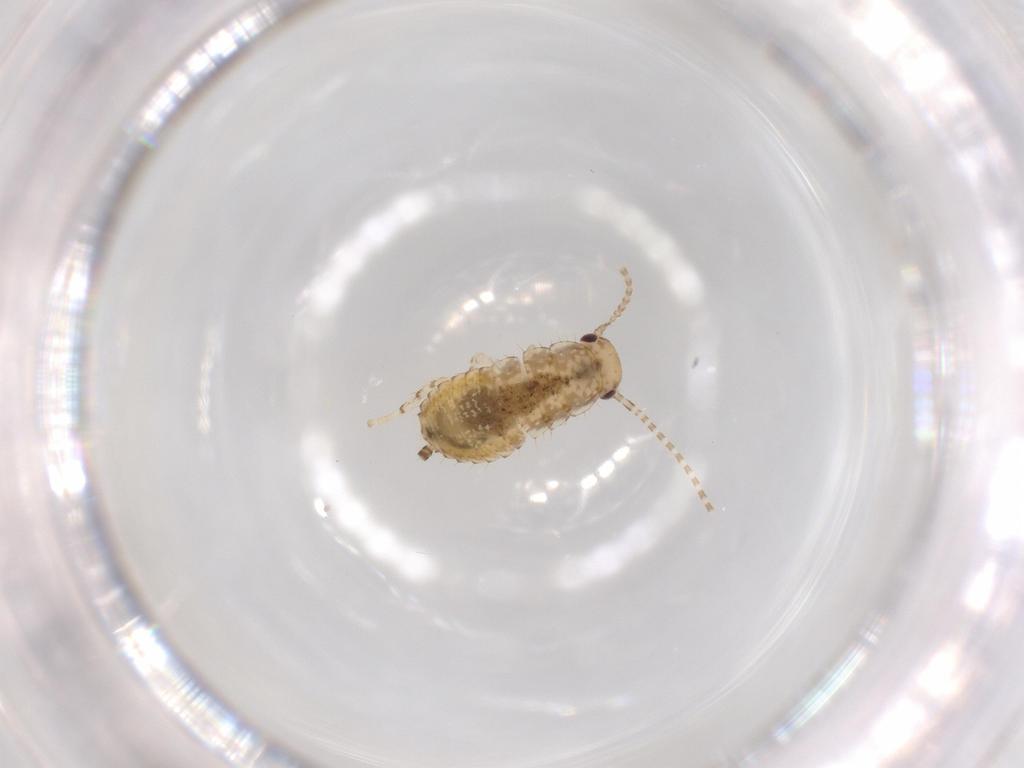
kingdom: Animalia
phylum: Arthropoda
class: Insecta
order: Blattodea
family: Ectobiidae
